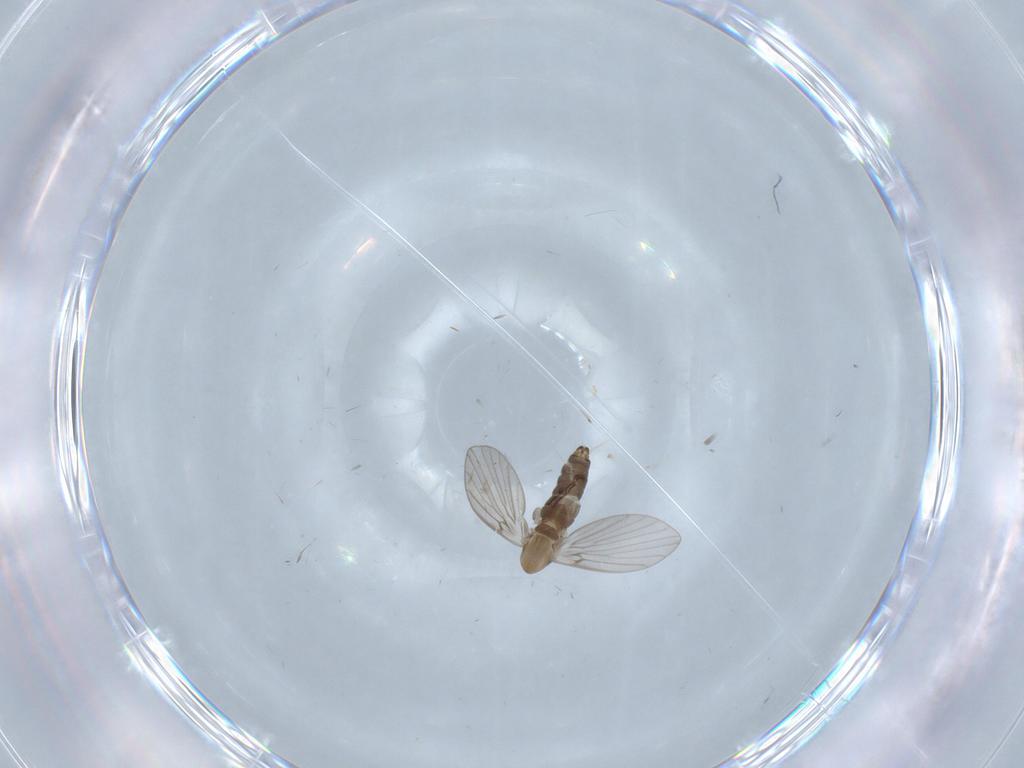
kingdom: Animalia
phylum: Arthropoda
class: Insecta
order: Diptera
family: Psychodidae
